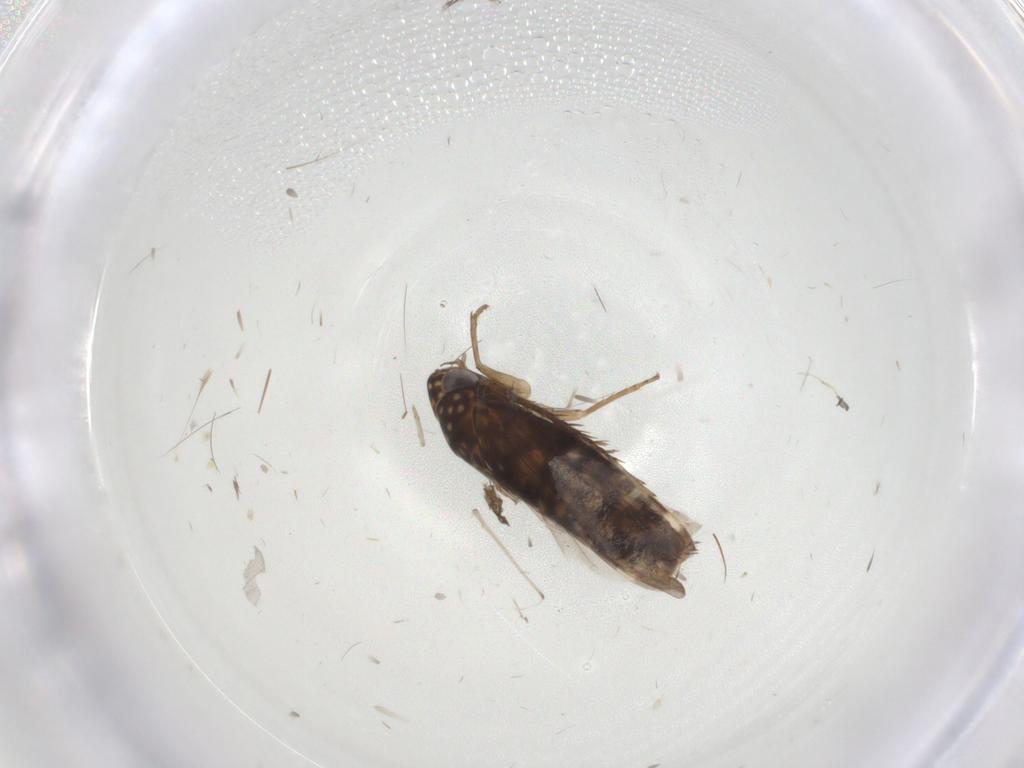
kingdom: Animalia
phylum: Arthropoda
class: Insecta
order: Hemiptera
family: Cicadellidae
